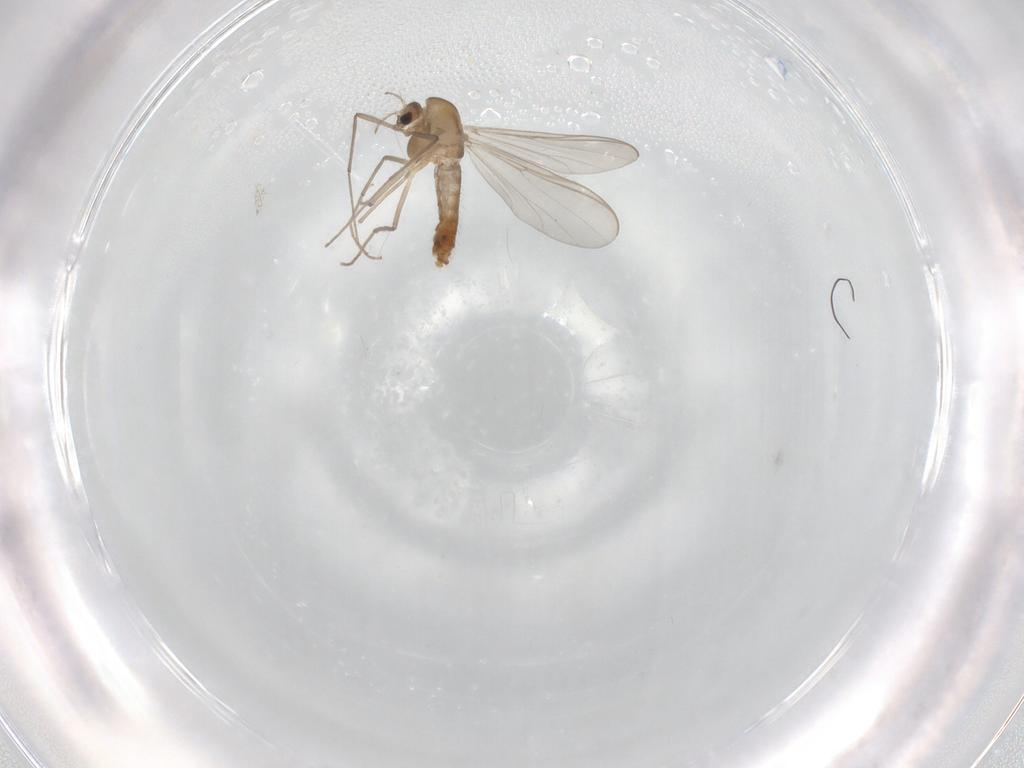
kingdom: Animalia
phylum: Arthropoda
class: Insecta
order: Diptera
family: Chironomidae
